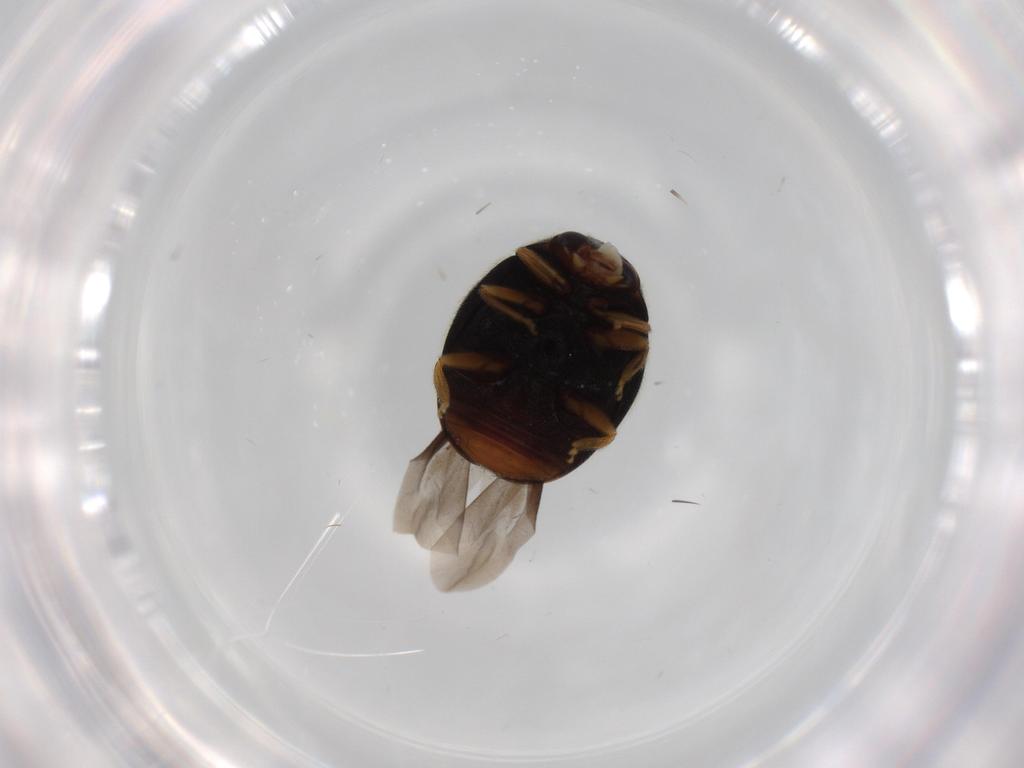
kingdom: Animalia
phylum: Arthropoda
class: Insecta
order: Coleoptera
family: Coccinellidae
